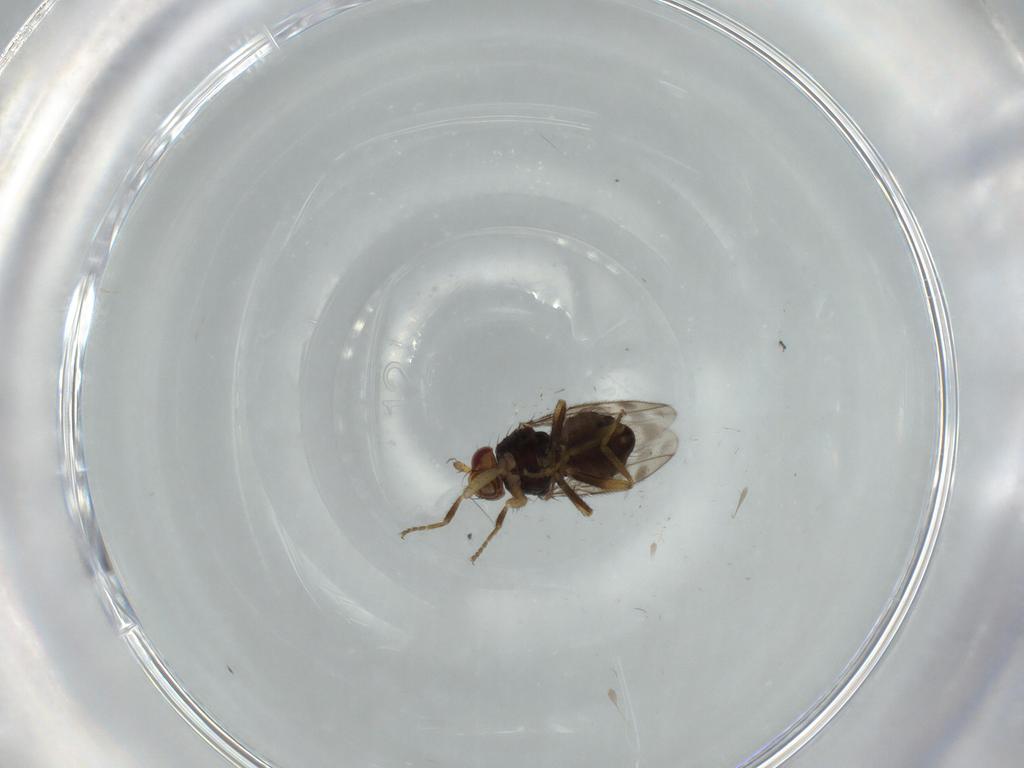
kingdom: Animalia
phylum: Arthropoda
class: Insecta
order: Diptera
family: Sphaeroceridae
